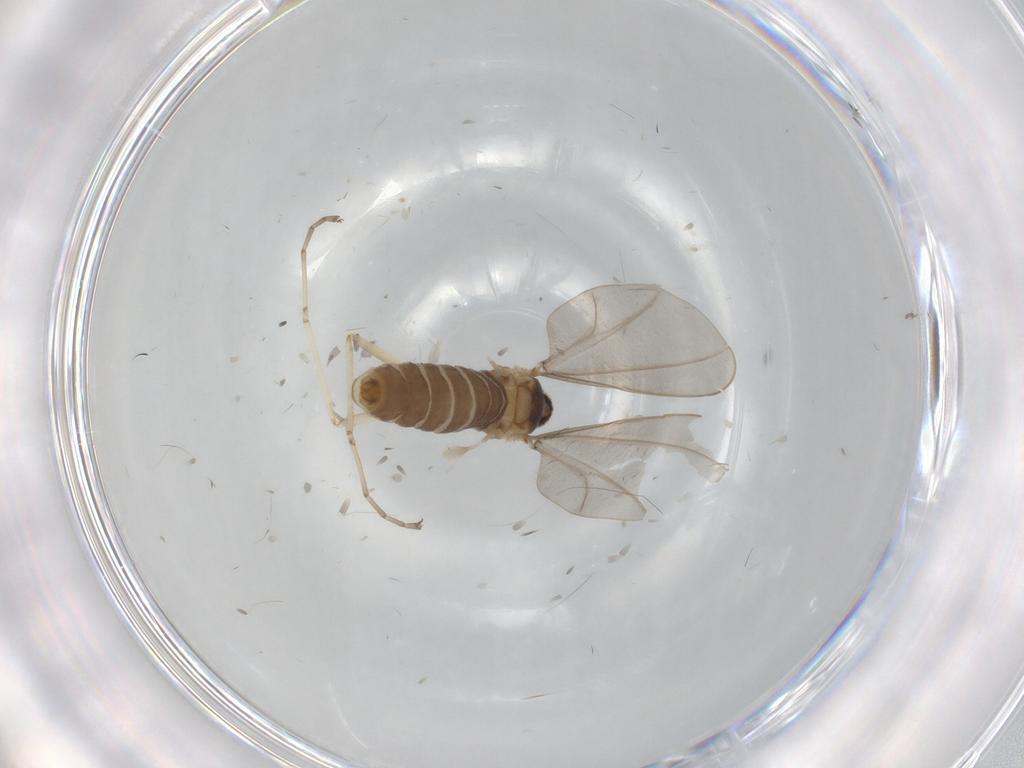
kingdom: Animalia
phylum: Arthropoda
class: Insecta
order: Diptera
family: Cecidomyiidae
